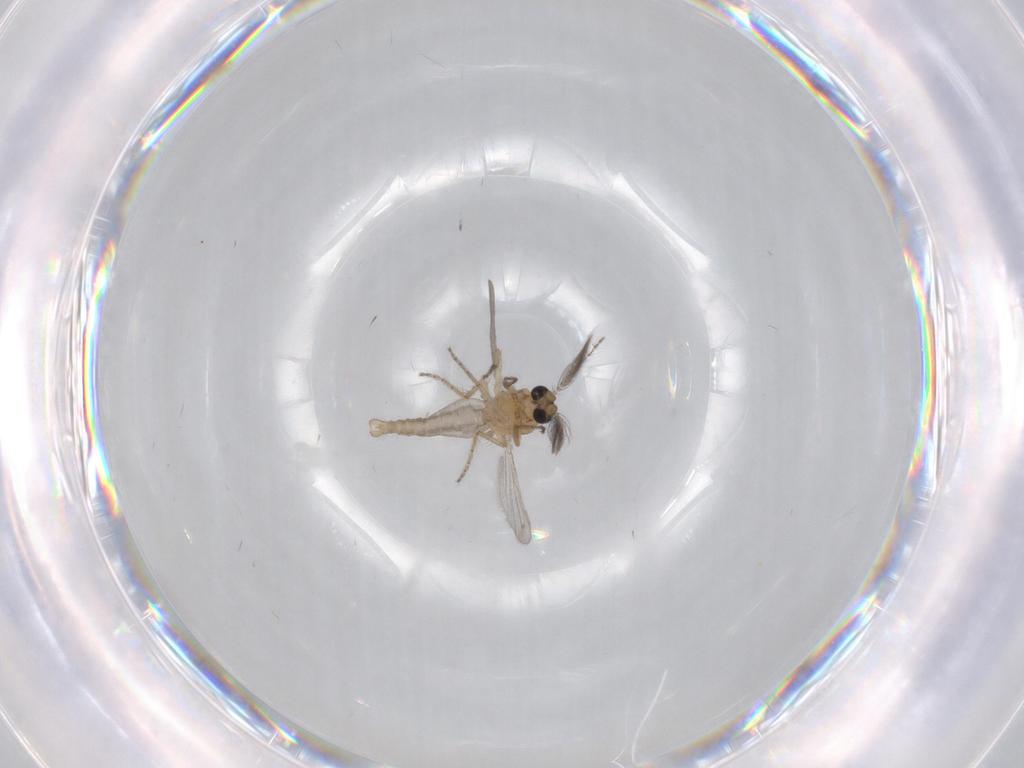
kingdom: Animalia
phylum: Arthropoda
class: Insecta
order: Diptera
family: Ceratopogonidae
